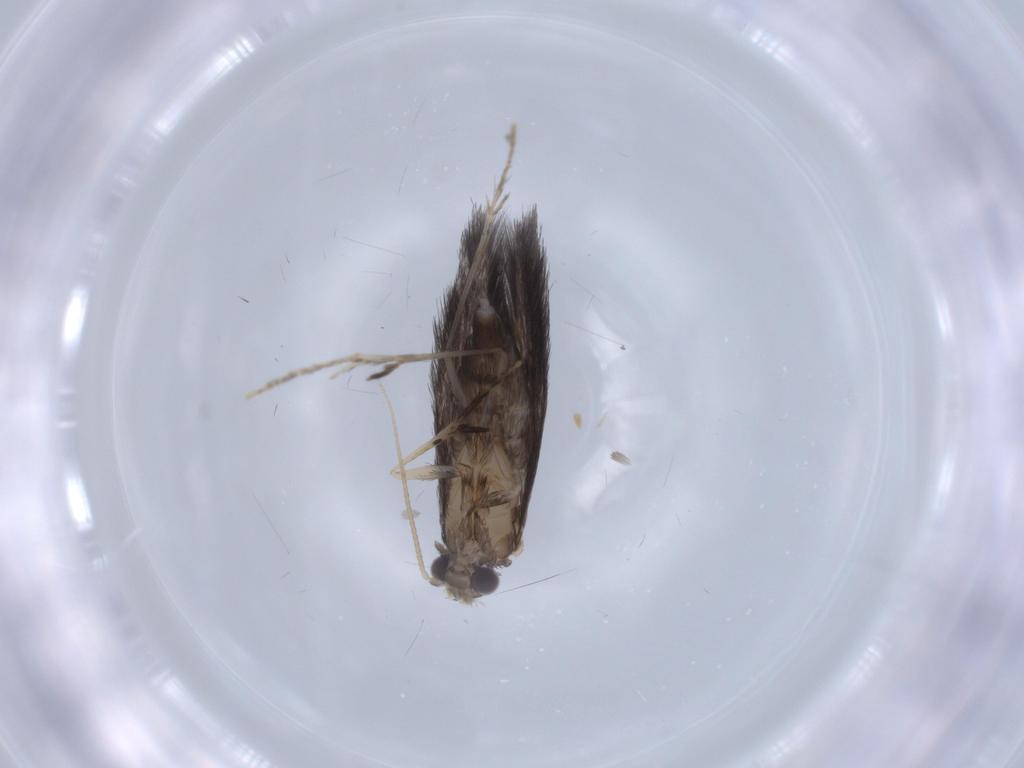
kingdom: Animalia
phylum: Arthropoda
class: Insecta
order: Trichoptera
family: Hydroptilidae
